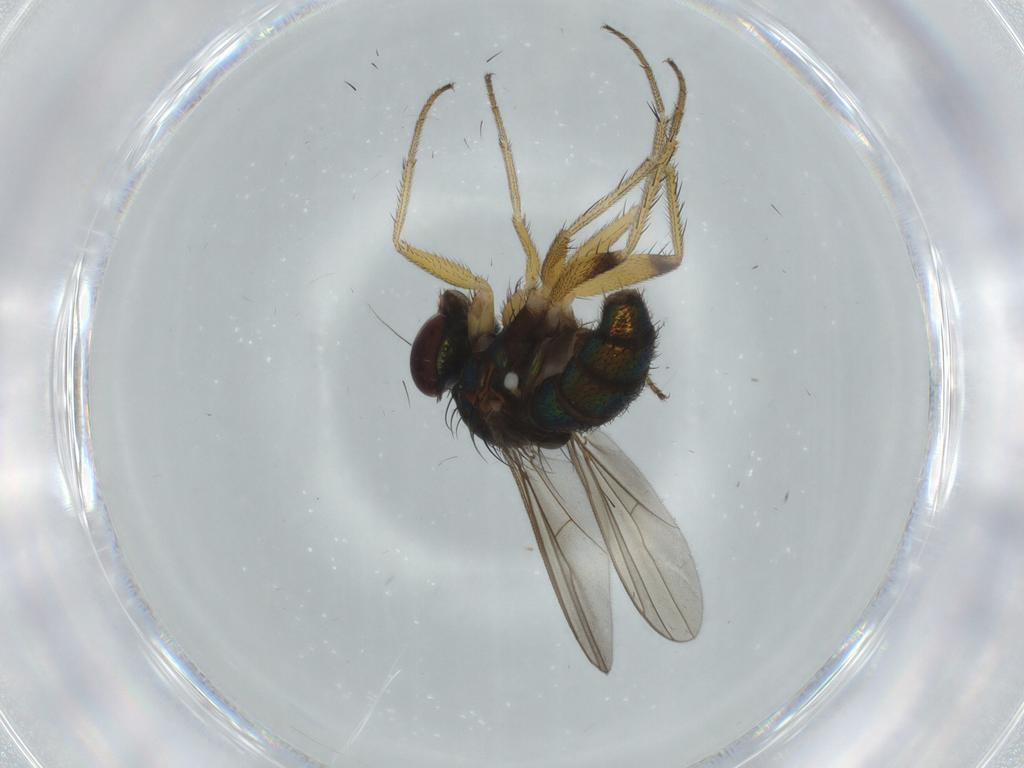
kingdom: Animalia
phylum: Arthropoda
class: Insecta
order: Diptera
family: Dolichopodidae
